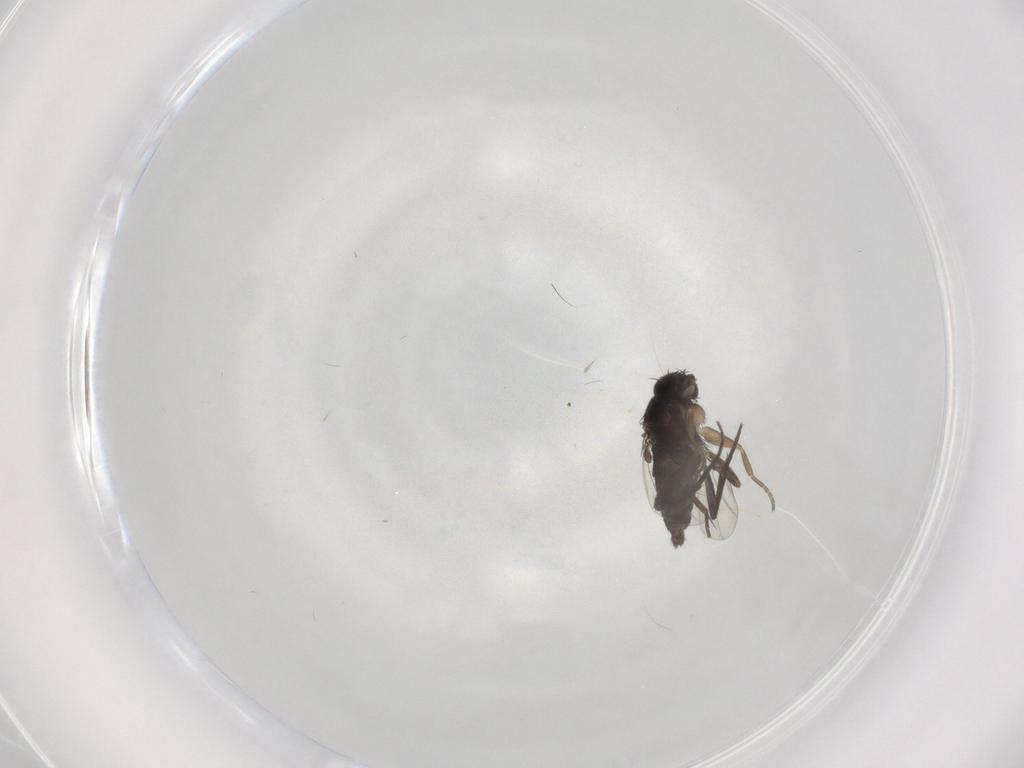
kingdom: Animalia
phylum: Arthropoda
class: Insecta
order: Diptera
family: Phoridae
